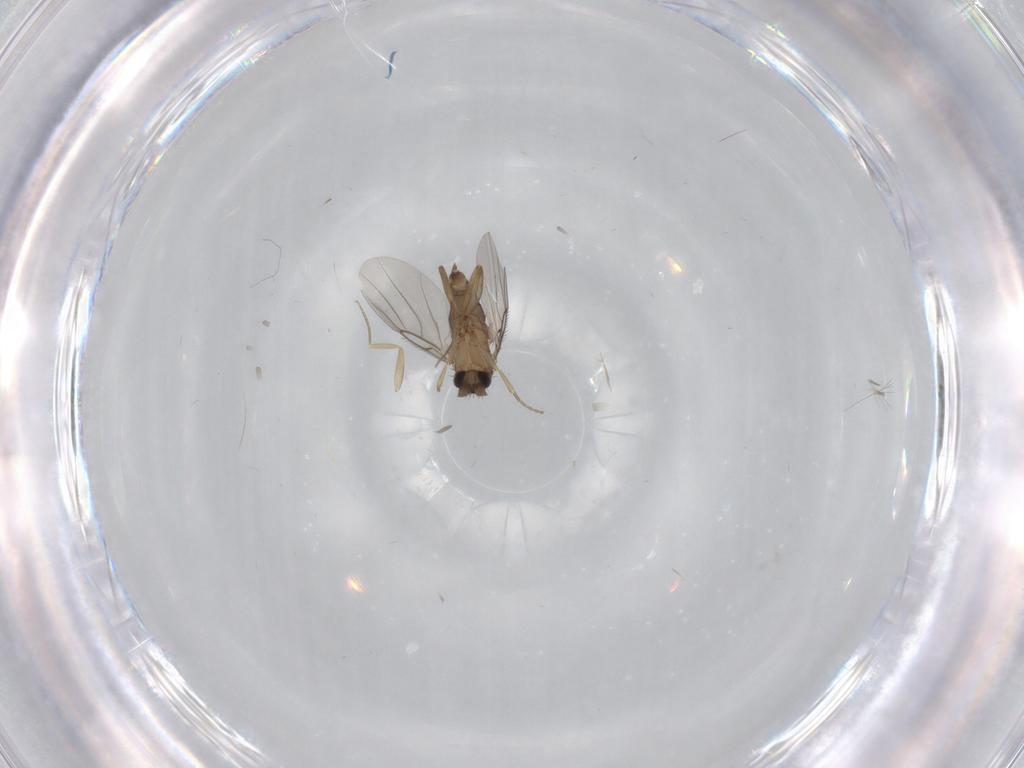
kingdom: Animalia
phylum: Arthropoda
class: Insecta
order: Diptera
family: Phoridae
